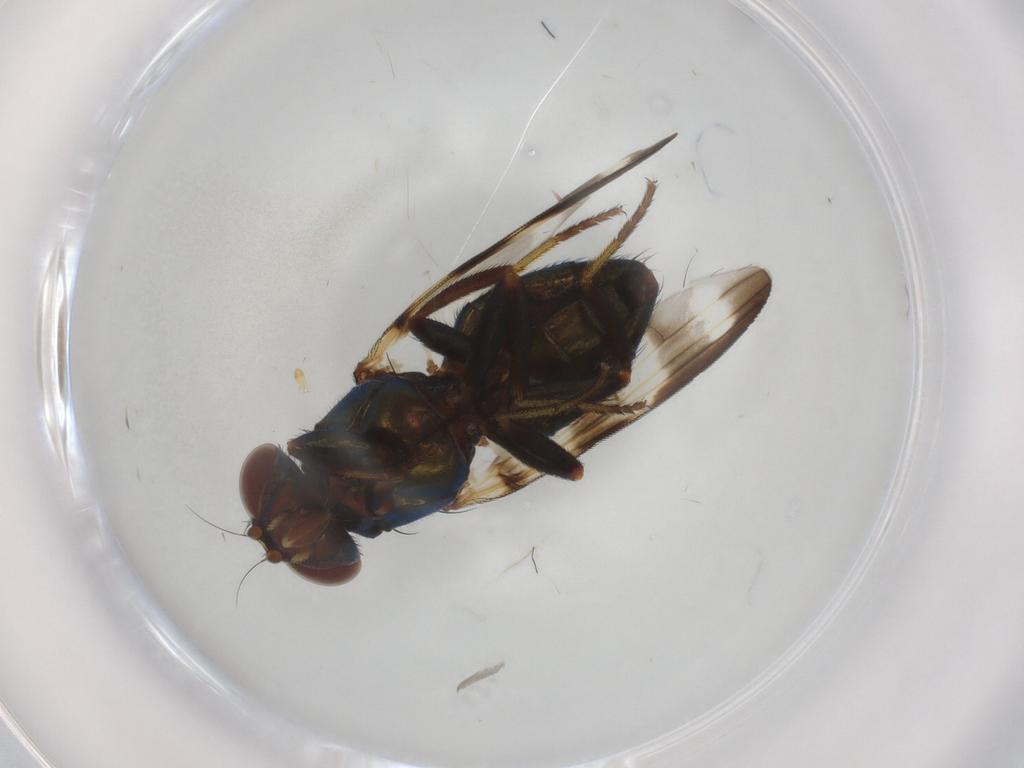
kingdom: Animalia
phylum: Arthropoda
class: Insecta
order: Diptera
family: Ulidiidae
